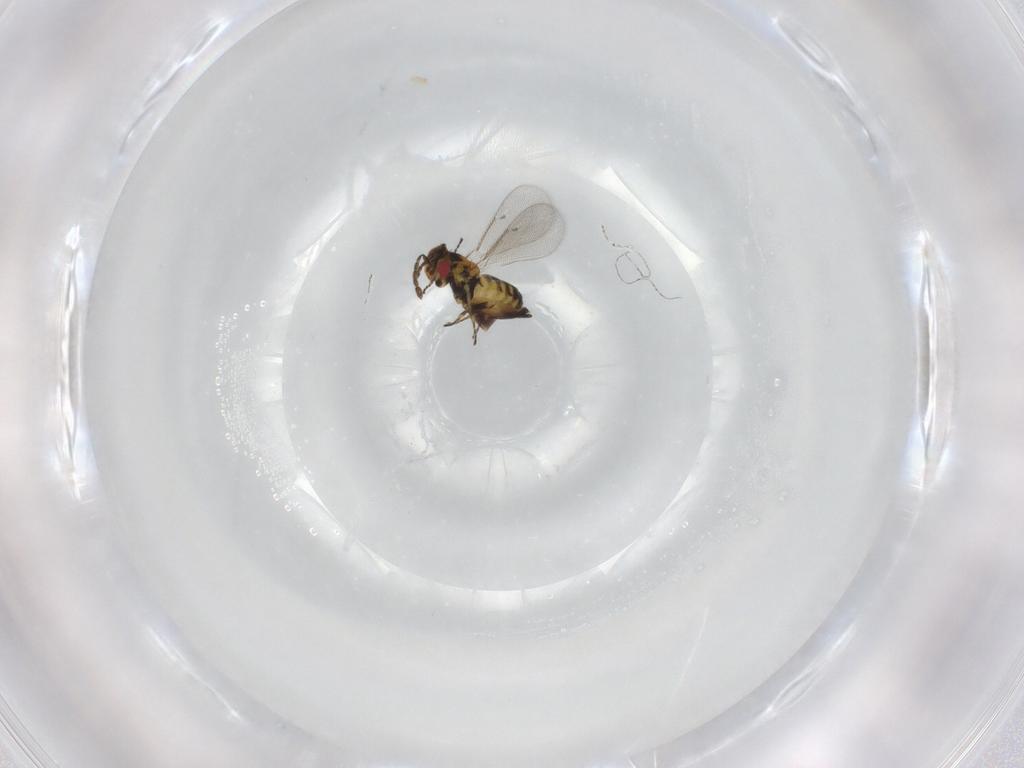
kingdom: Animalia
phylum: Arthropoda
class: Insecta
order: Hymenoptera
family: Eulophidae
